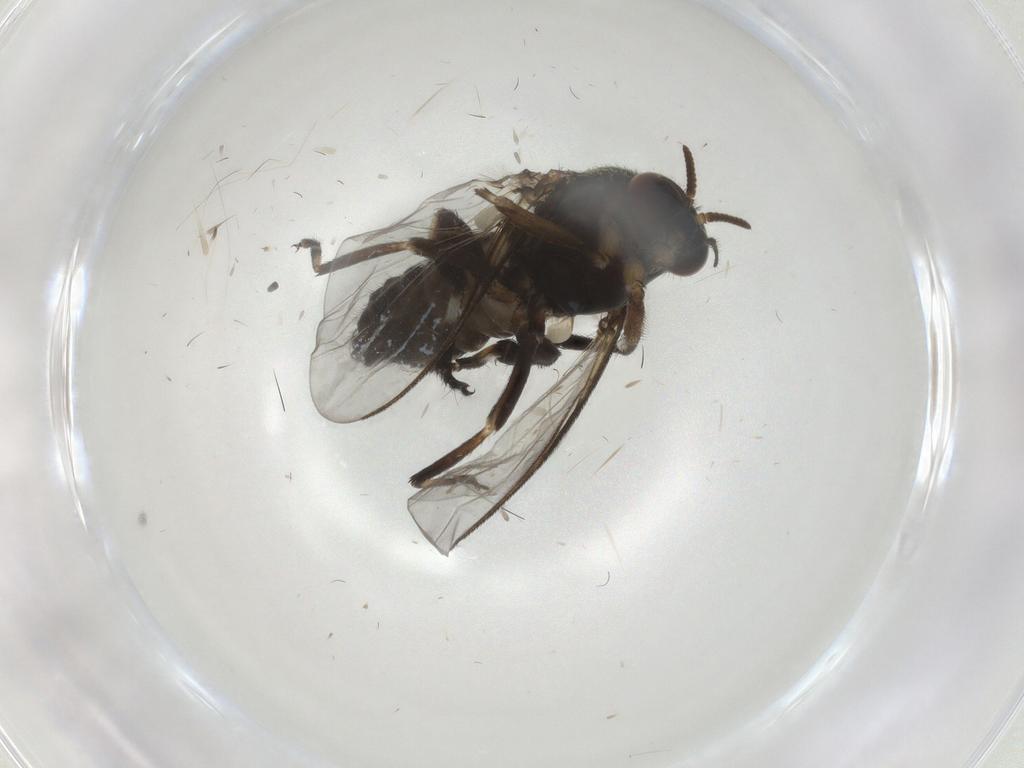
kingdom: Animalia
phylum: Arthropoda
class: Insecta
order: Diptera
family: Simuliidae
